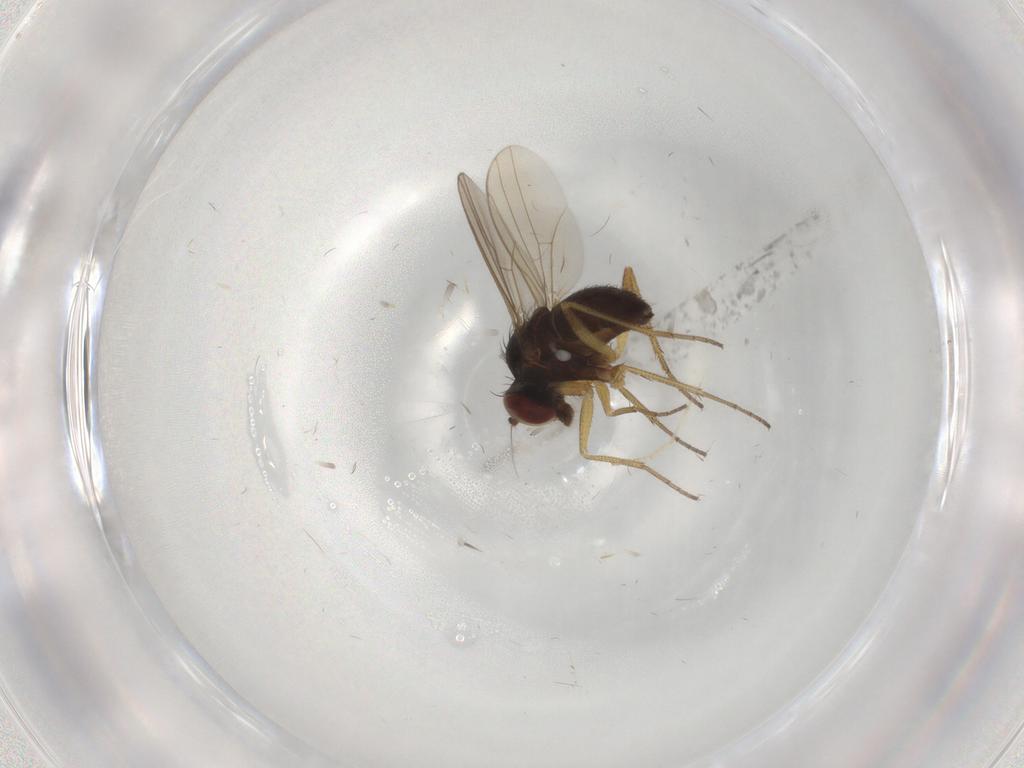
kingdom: Animalia
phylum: Arthropoda
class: Insecta
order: Diptera
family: Dolichopodidae
